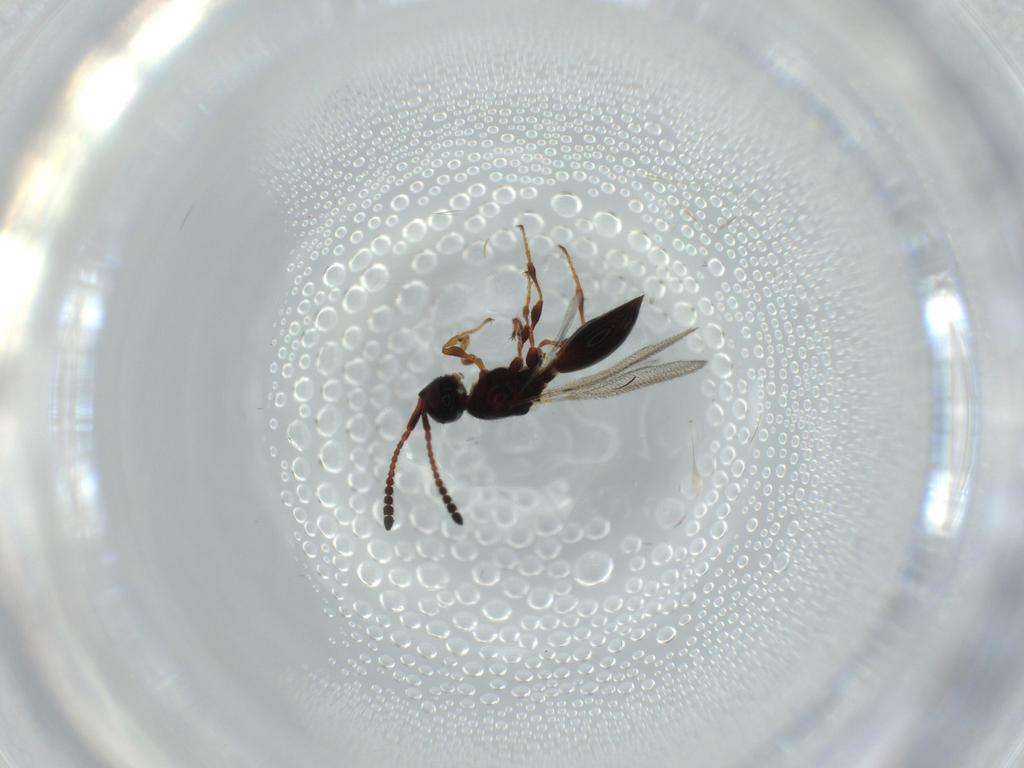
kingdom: Animalia
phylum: Arthropoda
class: Insecta
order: Hymenoptera
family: Diapriidae
